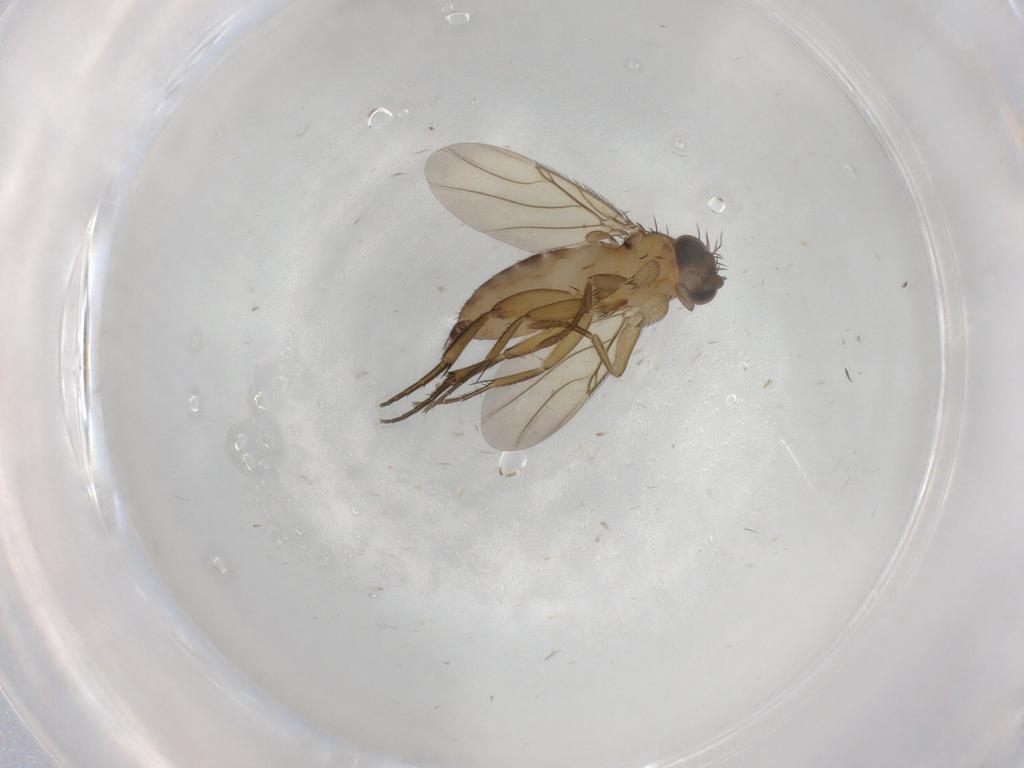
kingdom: Animalia
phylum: Arthropoda
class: Insecta
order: Diptera
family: Phoridae
